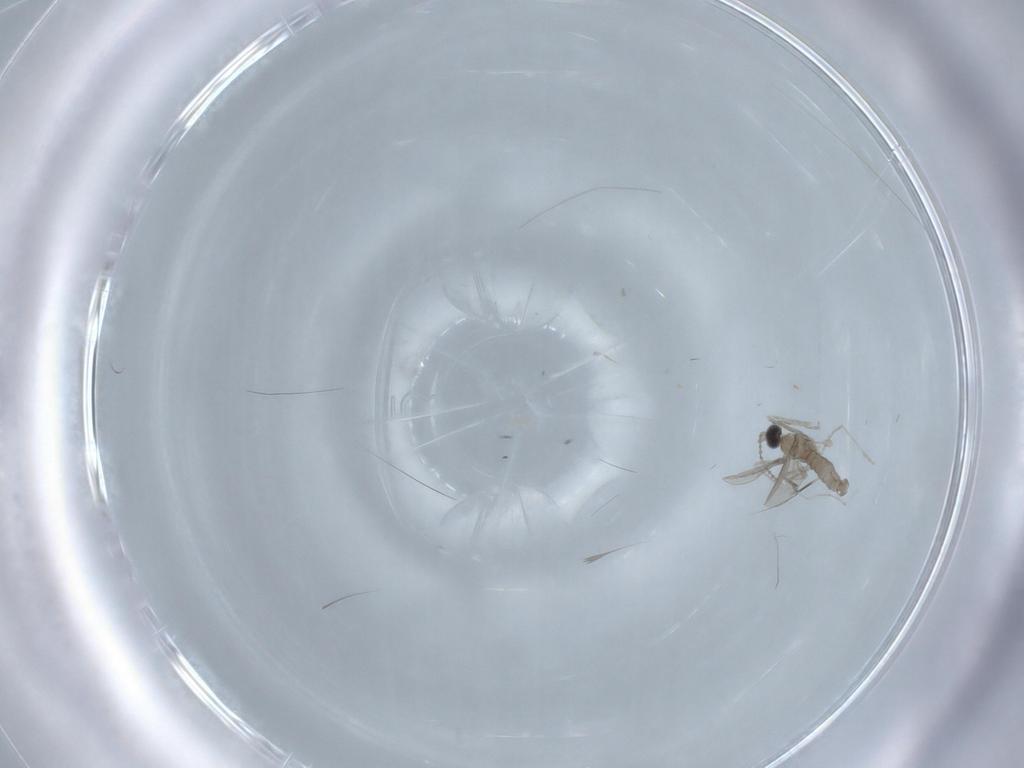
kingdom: Animalia
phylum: Arthropoda
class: Insecta
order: Diptera
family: Cecidomyiidae
